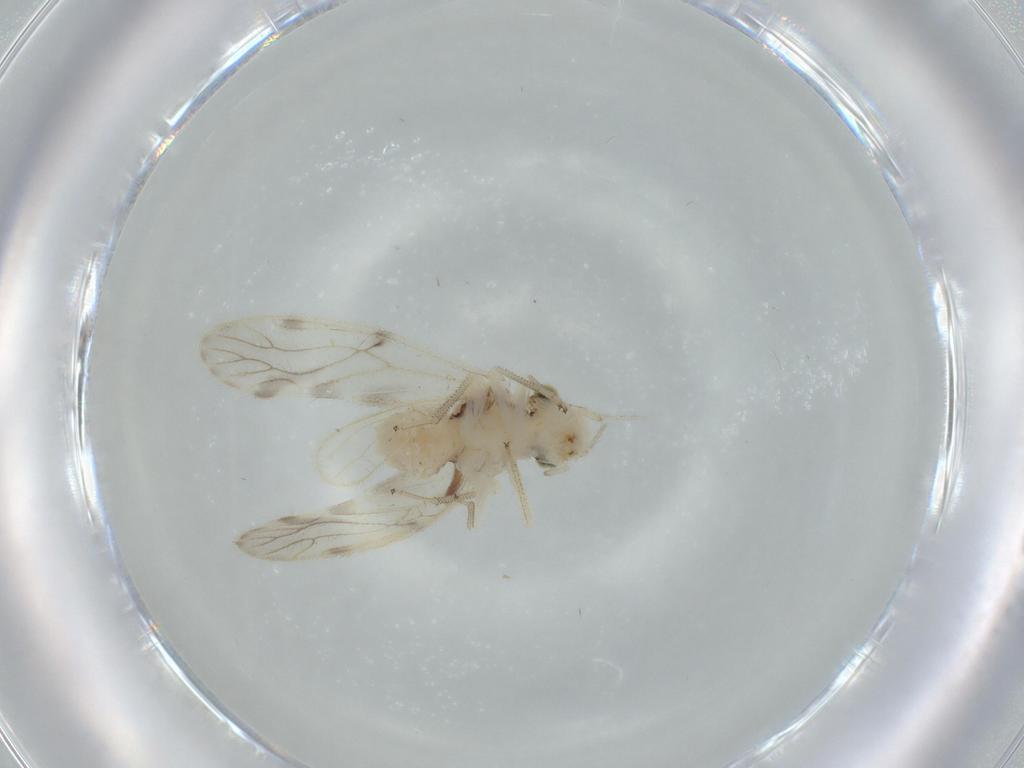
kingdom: Animalia
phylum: Arthropoda
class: Insecta
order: Psocodea
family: Pseudocaeciliidae
